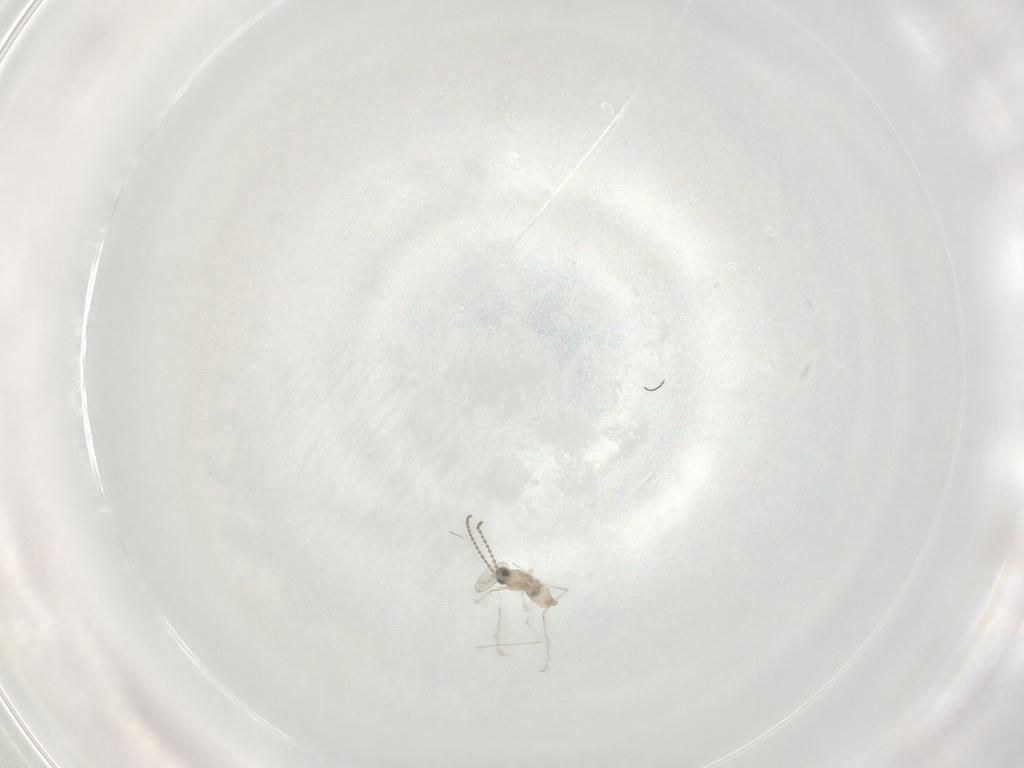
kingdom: Animalia
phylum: Arthropoda
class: Insecta
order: Diptera
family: Cecidomyiidae
